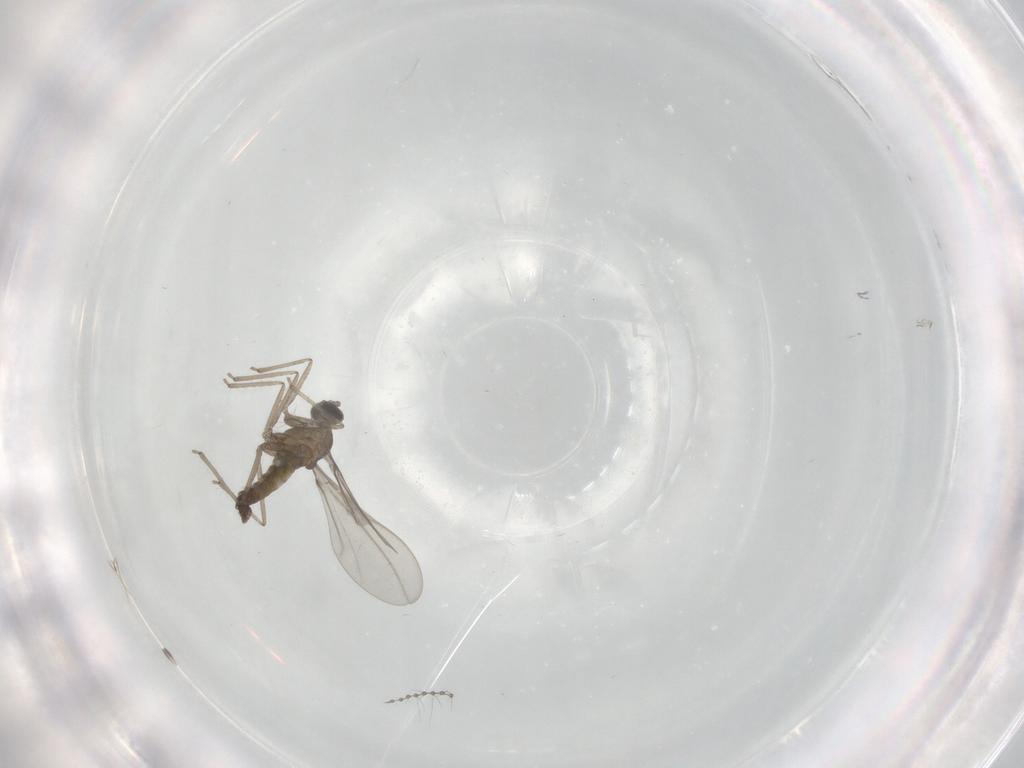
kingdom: Animalia
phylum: Arthropoda
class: Insecta
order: Diptera
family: Cecidomyiidae
